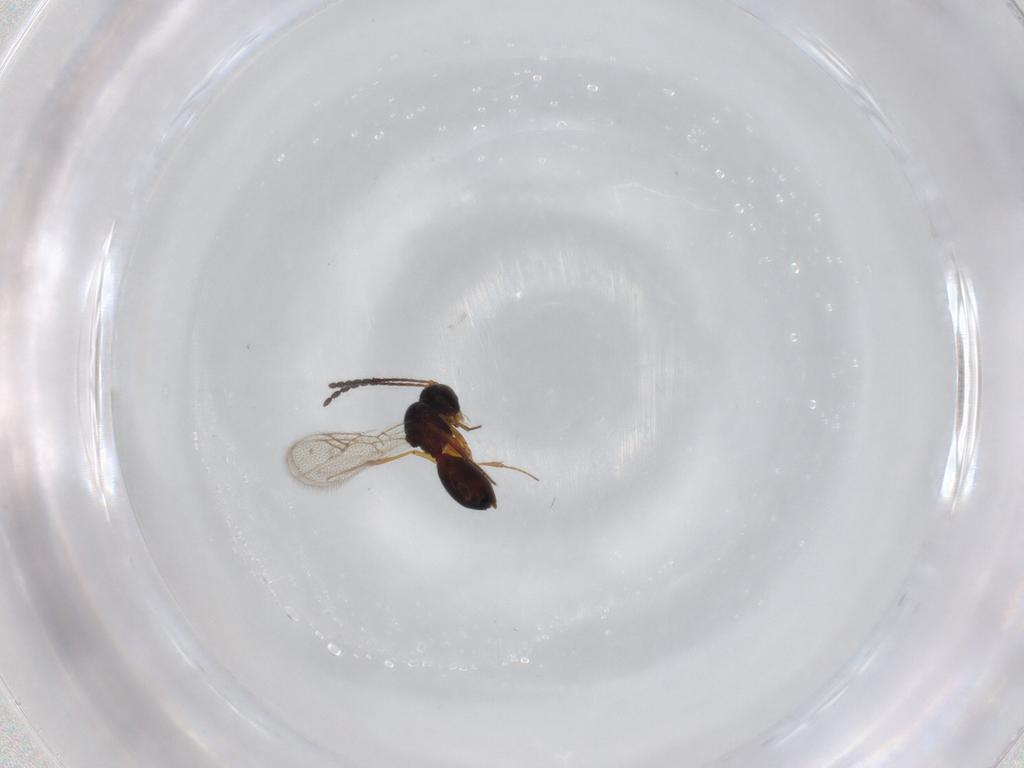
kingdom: Animalia
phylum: Arthropoda
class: Insecta
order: Hymenoptera
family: Figitidae
